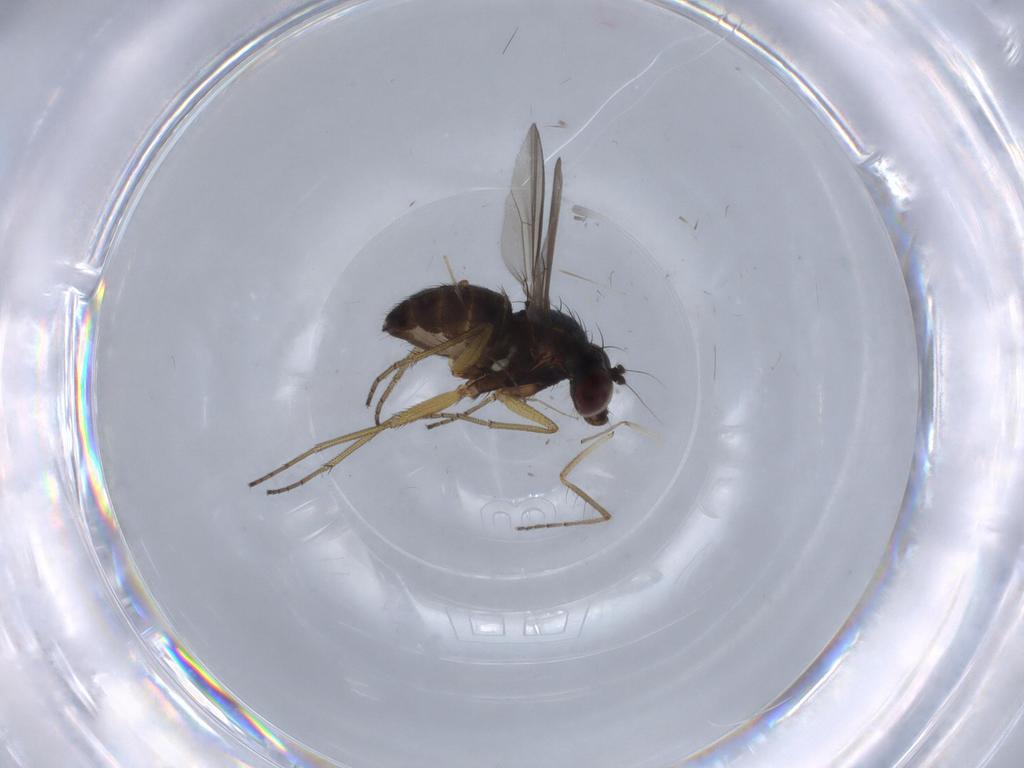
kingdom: Animalia
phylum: Arthropoda
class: Insecta
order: Diptera
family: Dolichopodidae
